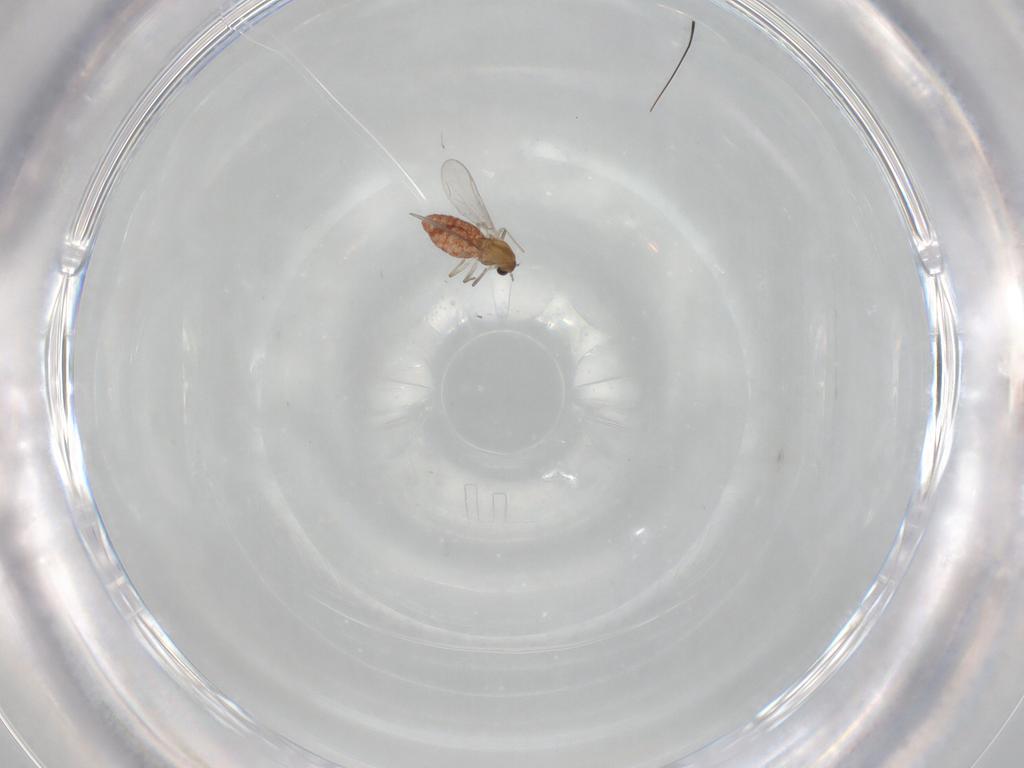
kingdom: Animalia
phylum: Arthropoda
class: Insecta
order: Diptera
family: Chironomidae
